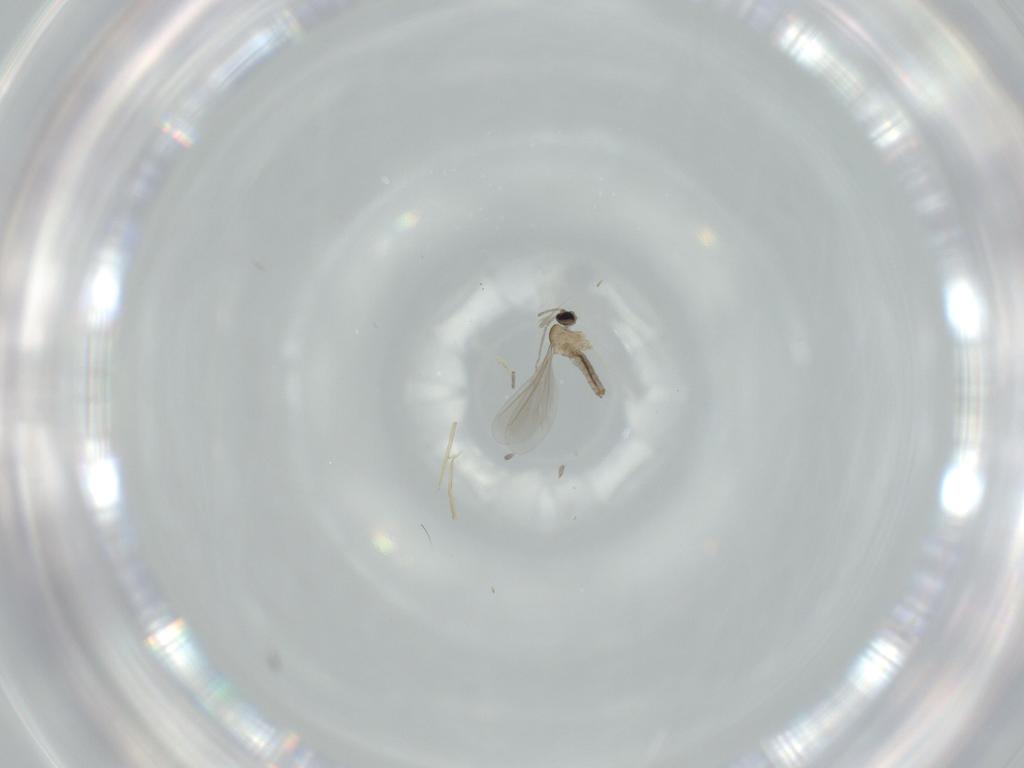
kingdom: Animalia
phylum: Arthropoda
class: Insecta
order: Diptera
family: Cecidomyiidae
